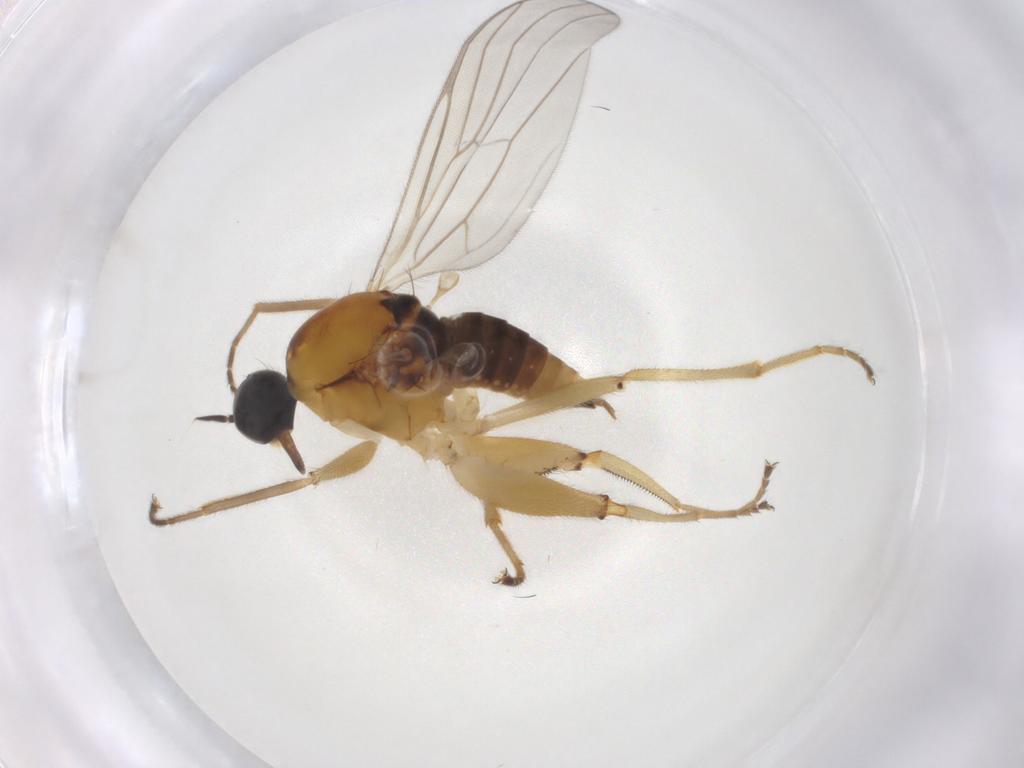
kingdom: Animalia
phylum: Arthropoda
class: Insecta
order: Diptera
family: Hybotidae
